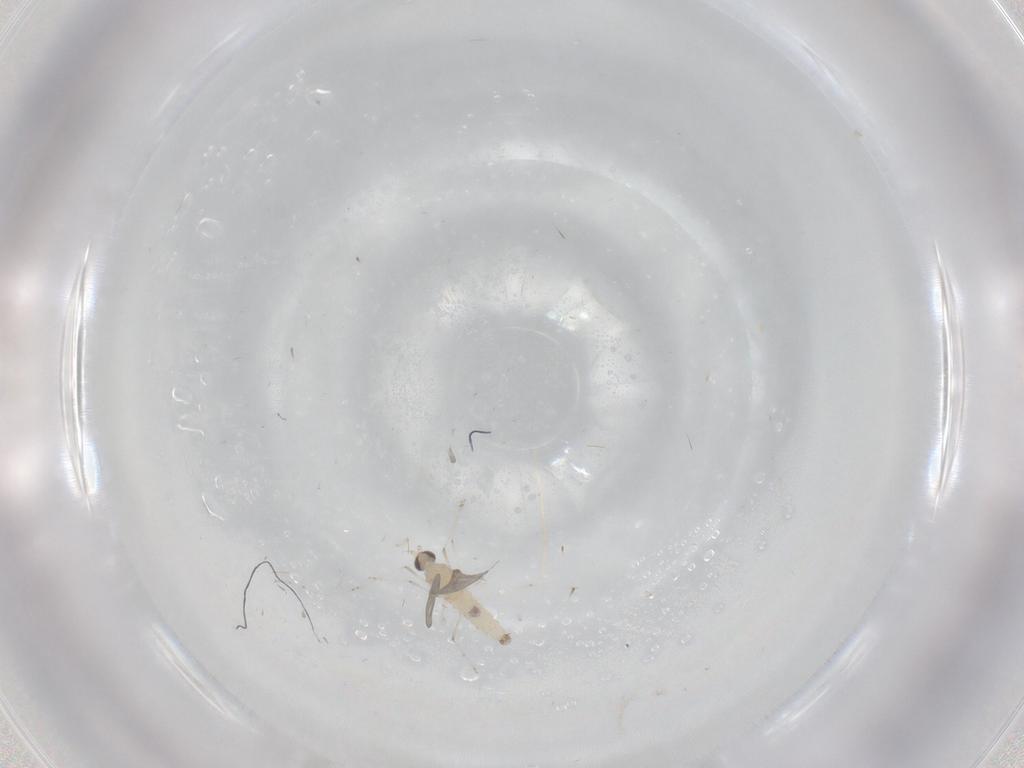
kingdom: Animalia
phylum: Arthropoda
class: Insecta
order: Diptera
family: Cecidomyiidae
